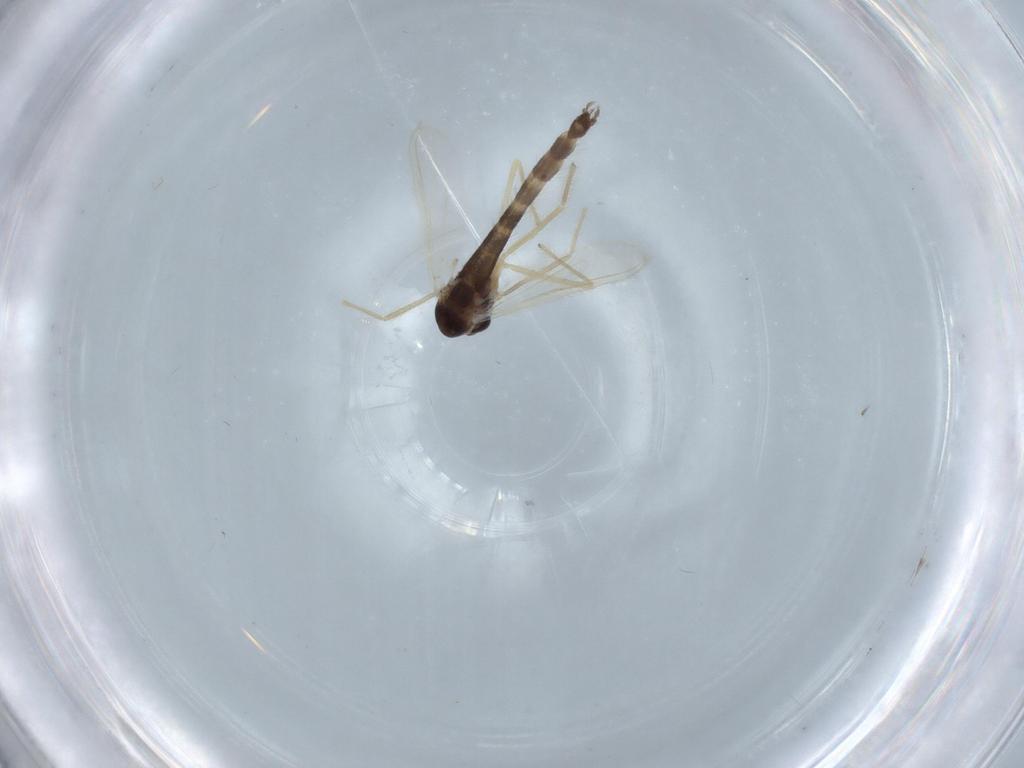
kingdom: Animalia
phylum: Arthropoda
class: Insecta
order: Diptera
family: Chironomidae
